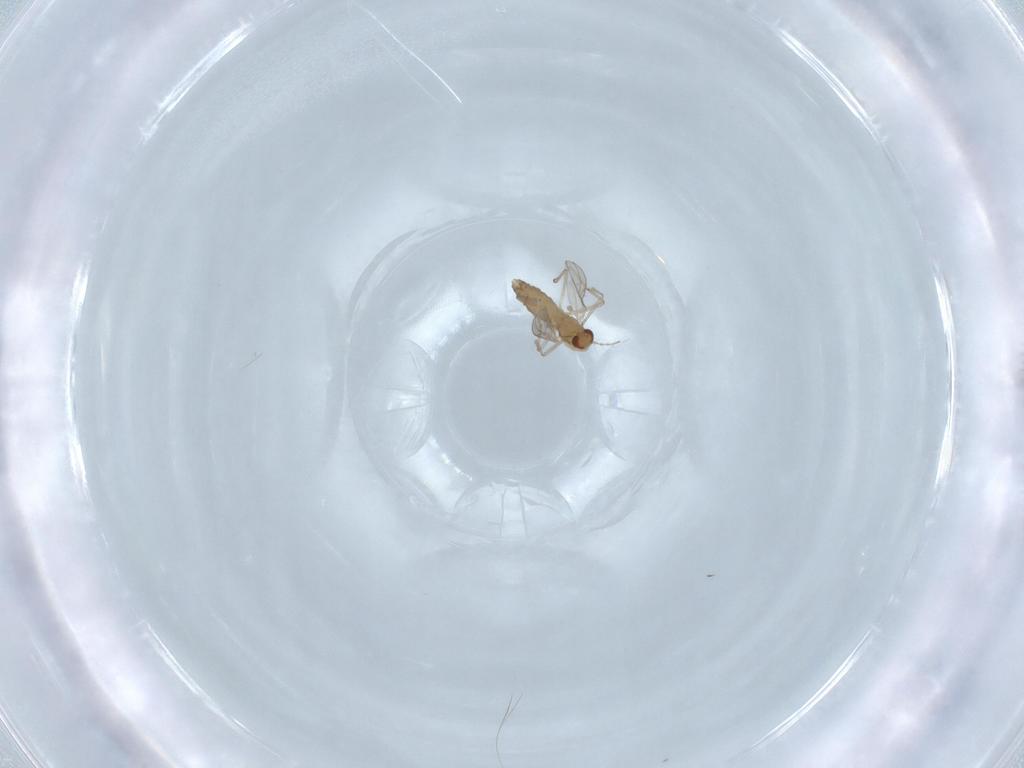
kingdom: Animalia
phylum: Arthropoda
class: Insecta
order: Diptera
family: Chironomidae
